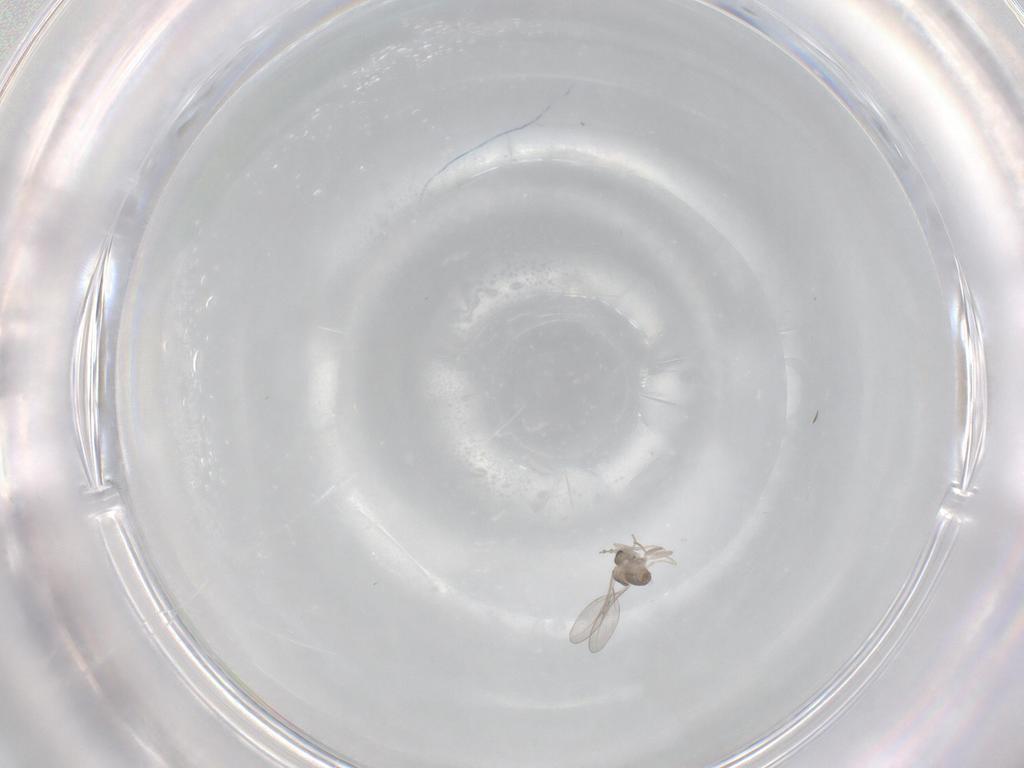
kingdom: Animalia
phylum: Arthropoda
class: Insecta
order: Diptera
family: Cecidomyiidae
